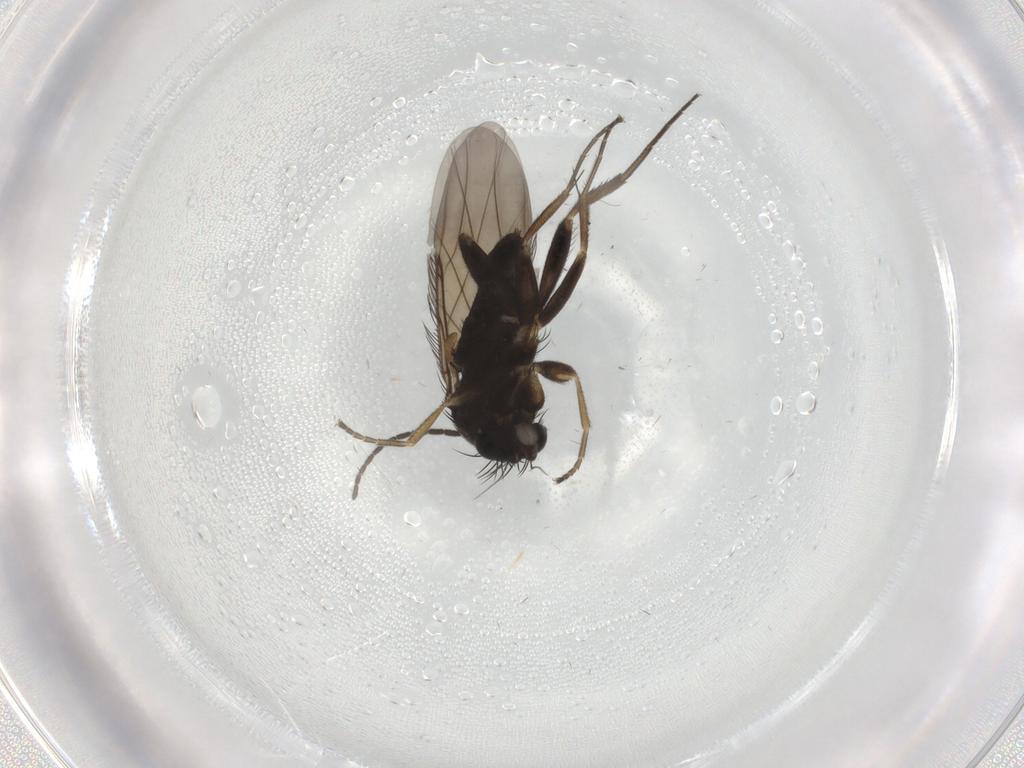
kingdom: Animalia
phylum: Arthropoda
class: Insecta
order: Diptera
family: Phoridae
